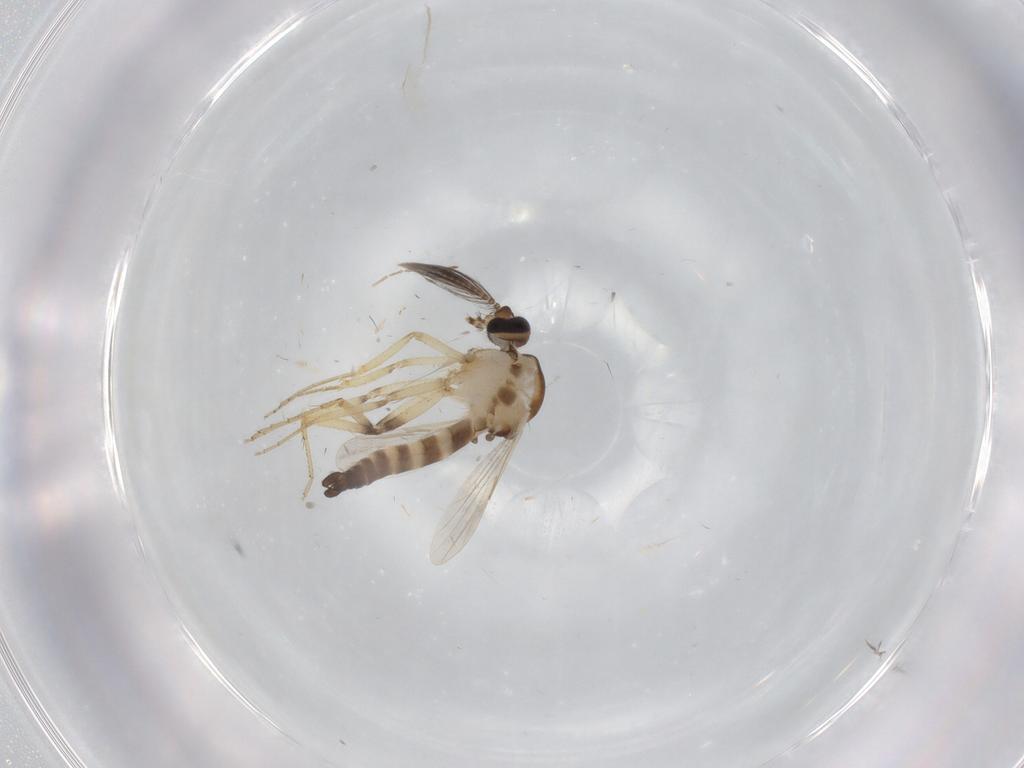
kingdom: Animalia
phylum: Arthropoda
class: Insecta
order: Diptera
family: Ceratopogonidae
